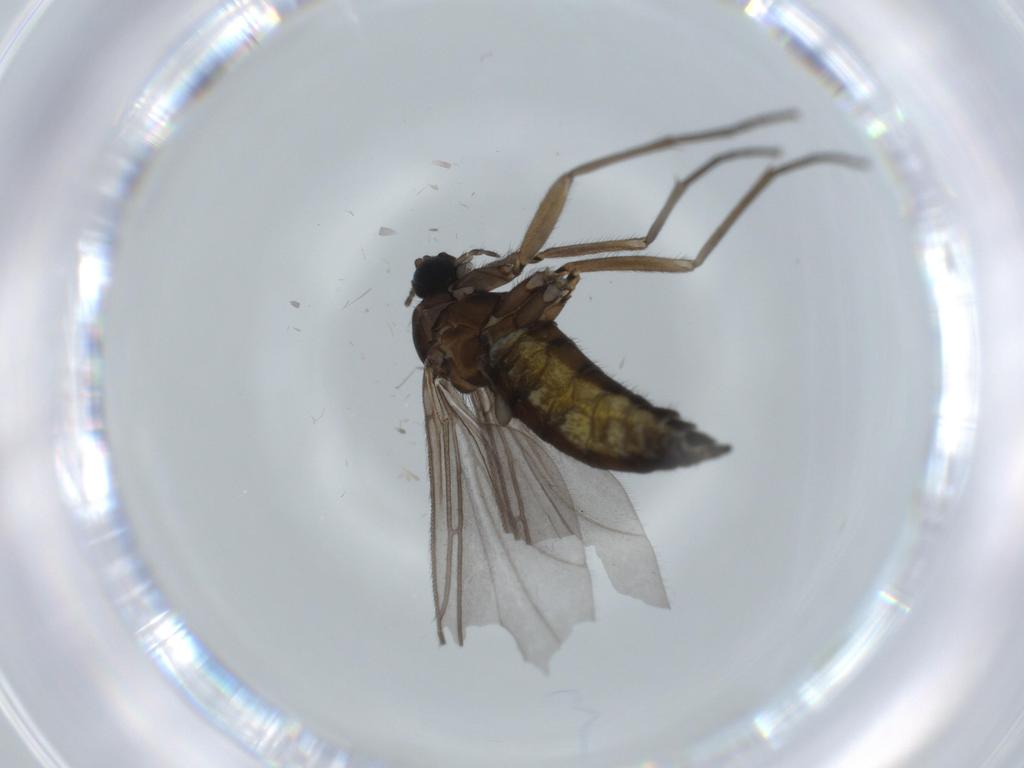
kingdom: Animalia
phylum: Arthropoda
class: Insecta
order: Diptera
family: Sciaridae
